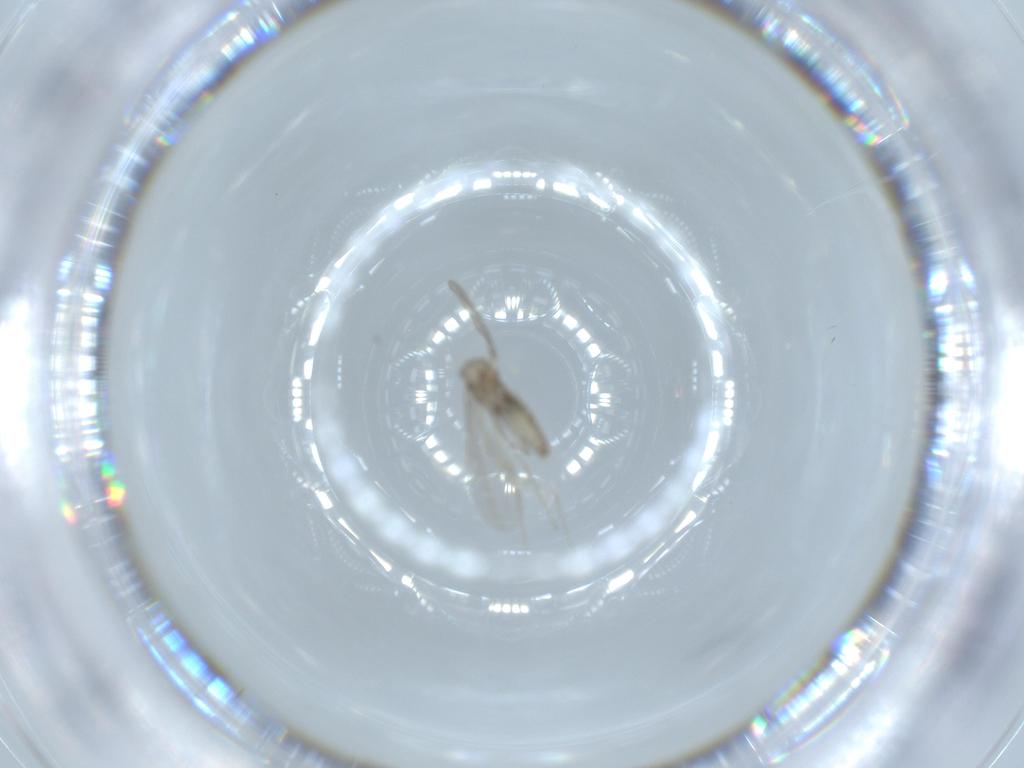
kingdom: Animalia
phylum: Arthropoda
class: Insecta
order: Diptera
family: Cecidomyiidae
